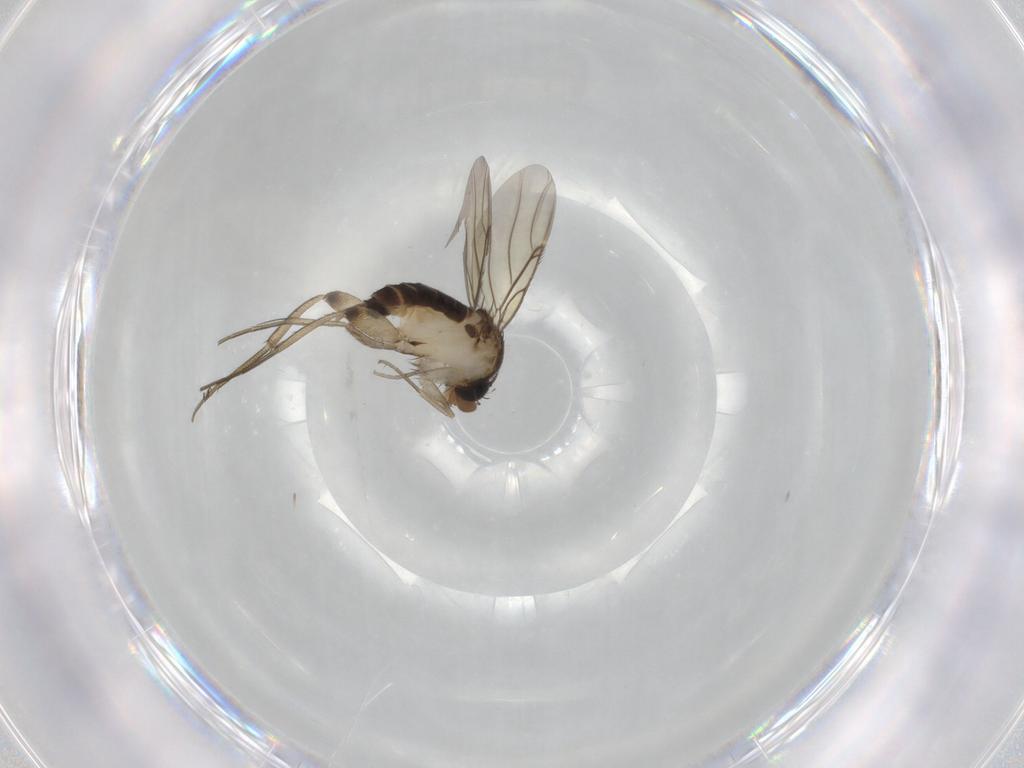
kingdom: Animalia
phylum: Arthropoda
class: Insecta
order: Diptera
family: Phoridae
